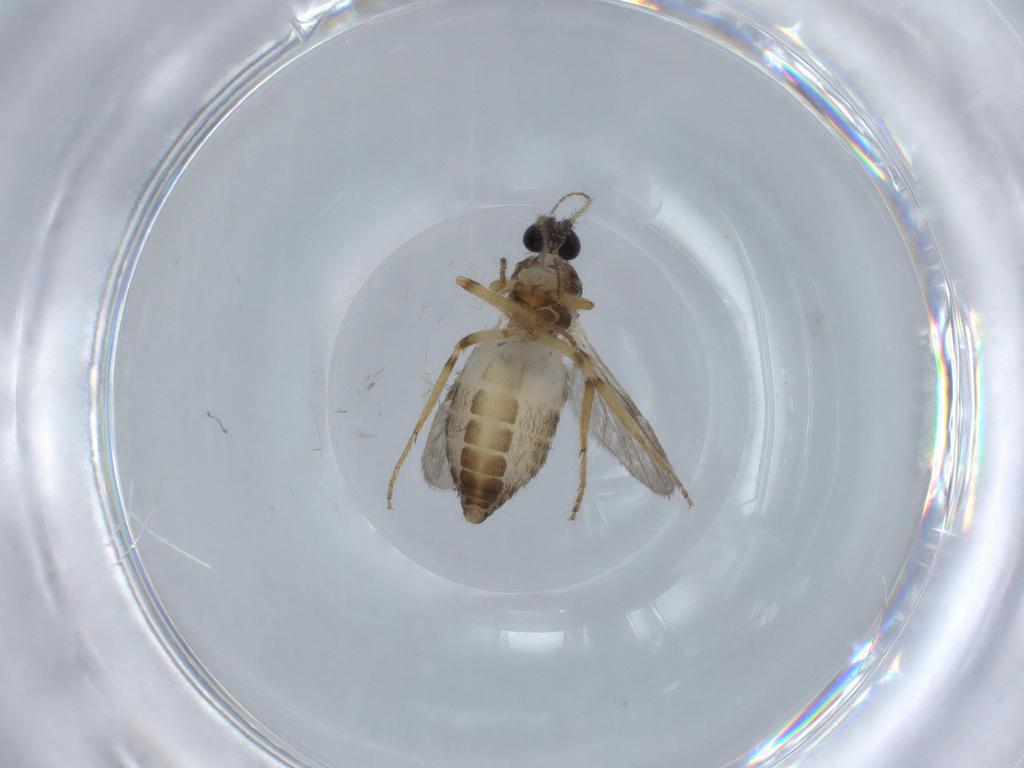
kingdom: Animalia
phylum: Arthropoda
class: Insecta
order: Diptera
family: Ceratopogonidae
